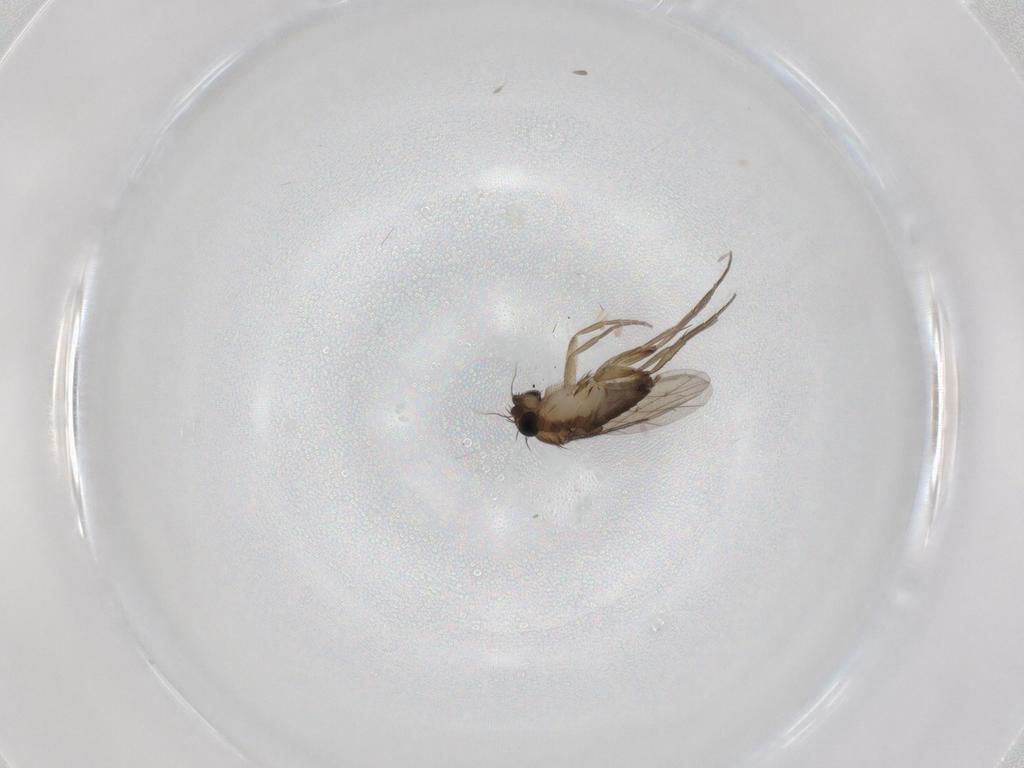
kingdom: Animalia
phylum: Arthropoda
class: Insecta
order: Diptera
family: Phoridae
